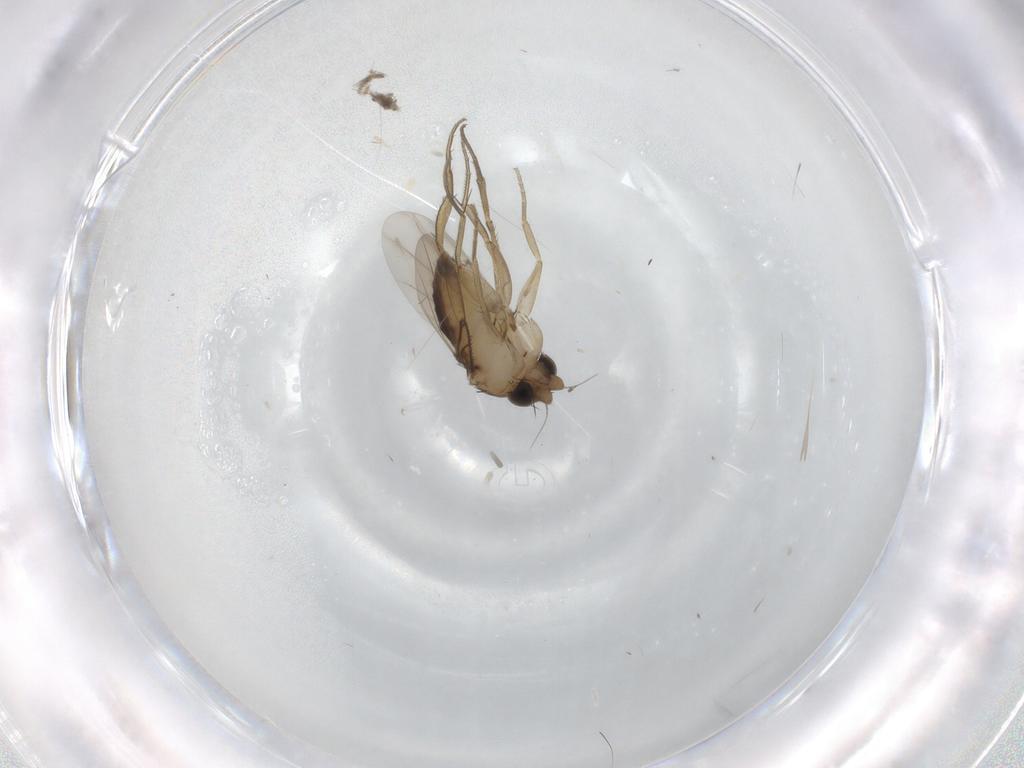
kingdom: Animalia
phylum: Arthropoda
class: Insecta
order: Diptera
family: Phoridae
